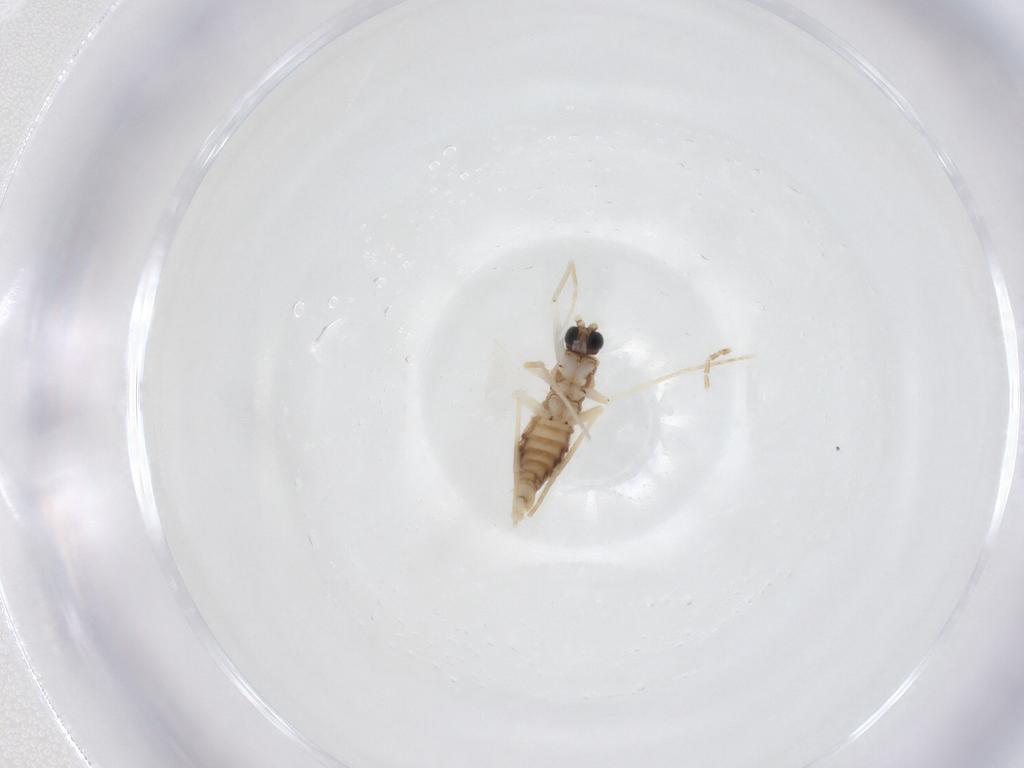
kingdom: Animalia
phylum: Arthropoda
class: Insecta
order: Diptera
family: Sciaridae
